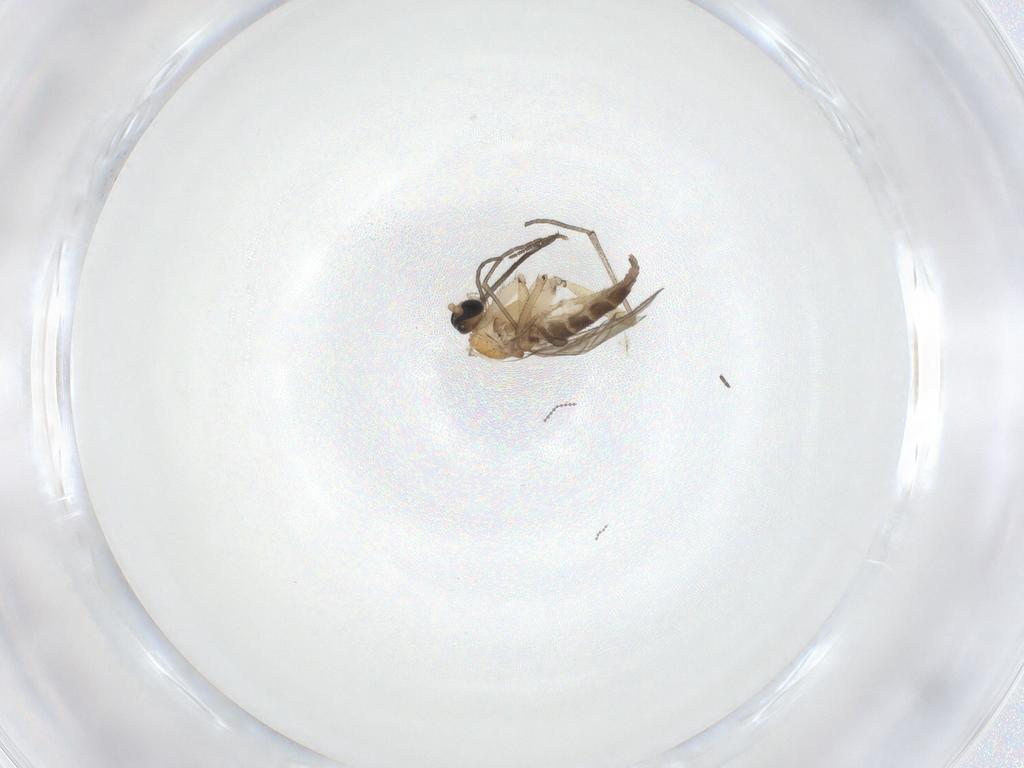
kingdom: Animalia
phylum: Arthropoda
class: Insecta
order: Diptera
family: Cecidomyiidae
